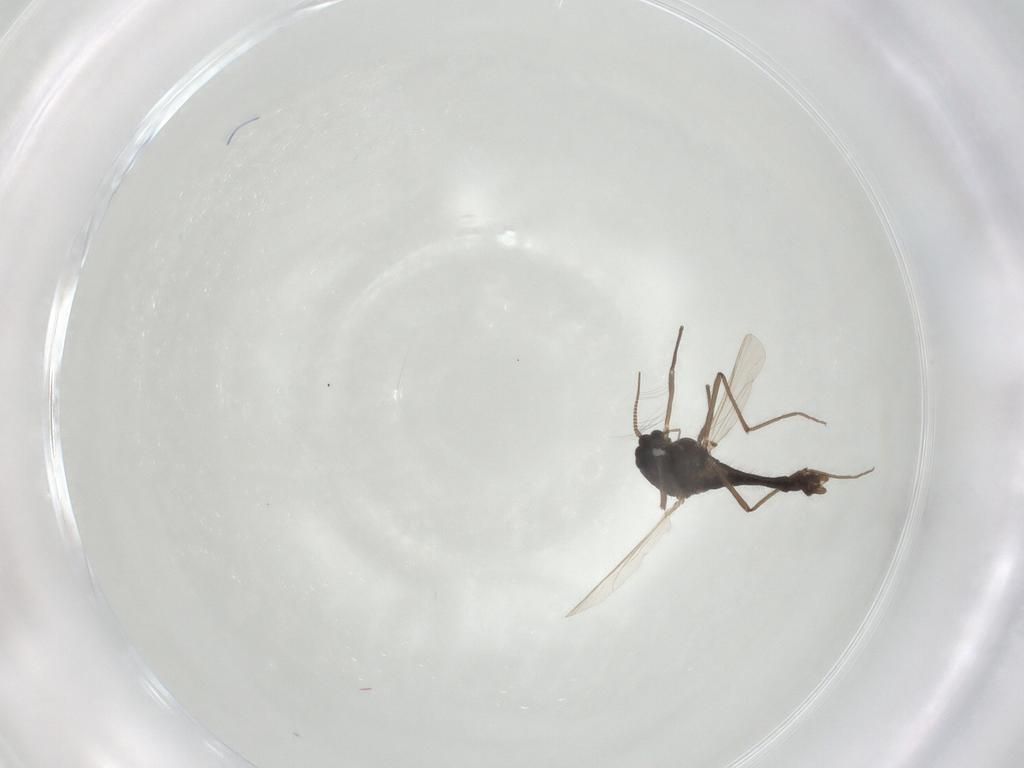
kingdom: Animalia
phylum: Arthropoda
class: Insecta
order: Diptera
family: Chironomidae
